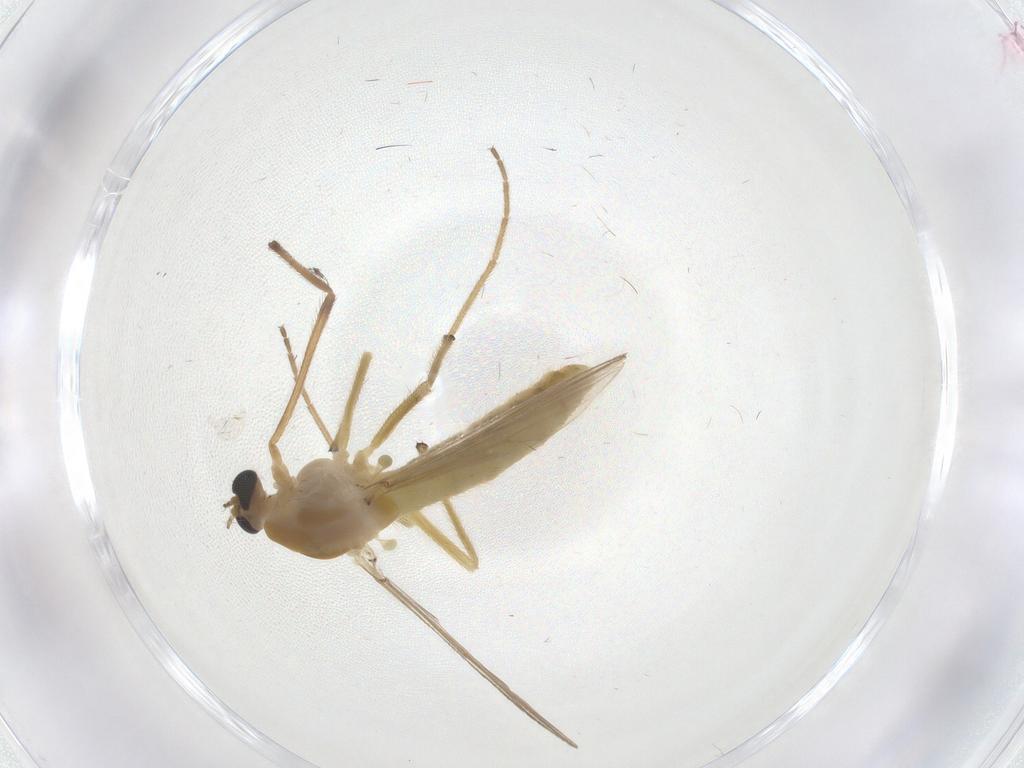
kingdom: Animalia
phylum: Arthropoda
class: Insecta
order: Diptera
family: Chironomidae
